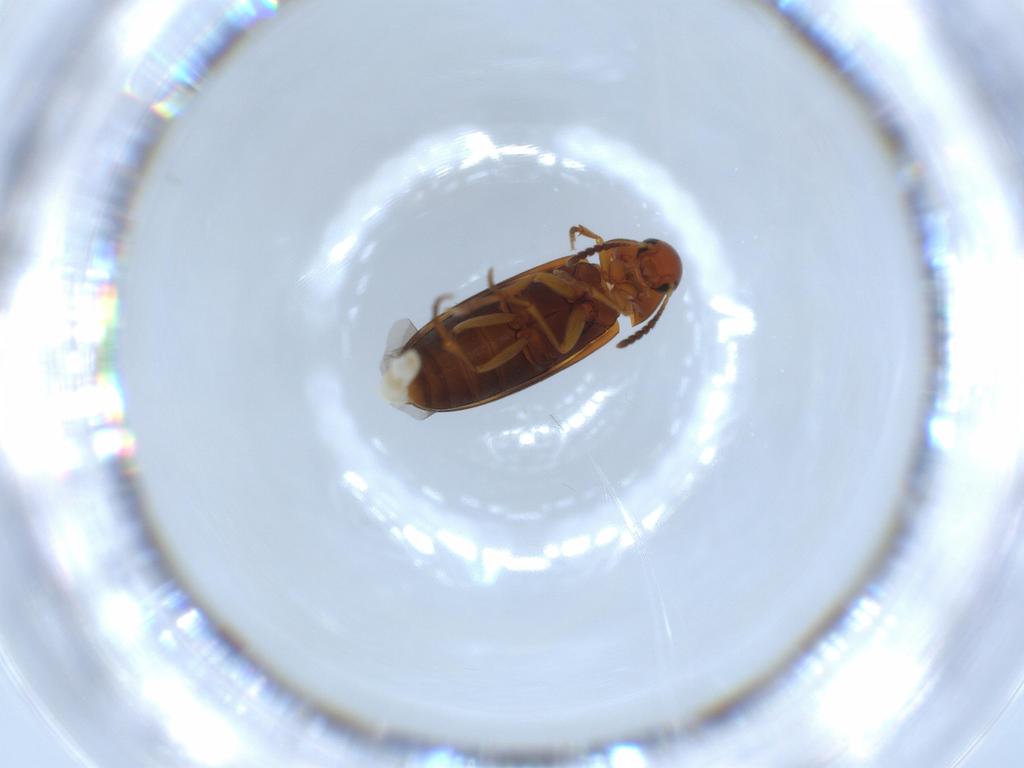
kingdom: Animalia
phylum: Arthropoda
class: Insecta
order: Coleoptera
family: Scraptiidae
